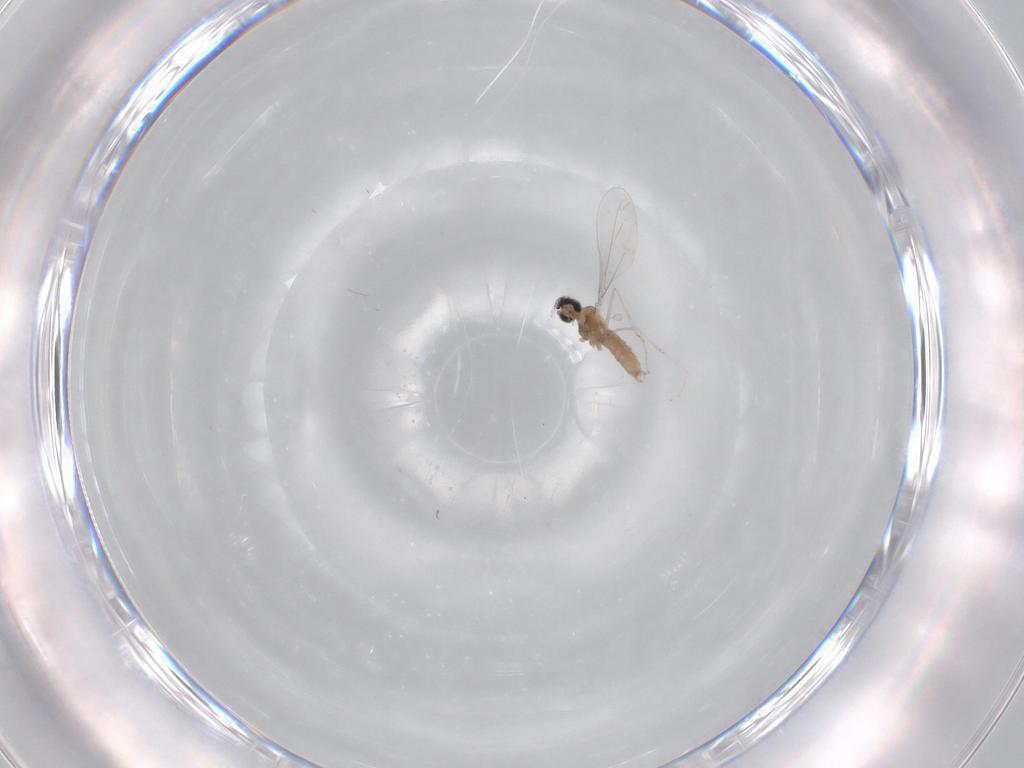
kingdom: Animalia
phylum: Arthropoda
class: Insecta
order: Diptera
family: Cecidomyiidae
